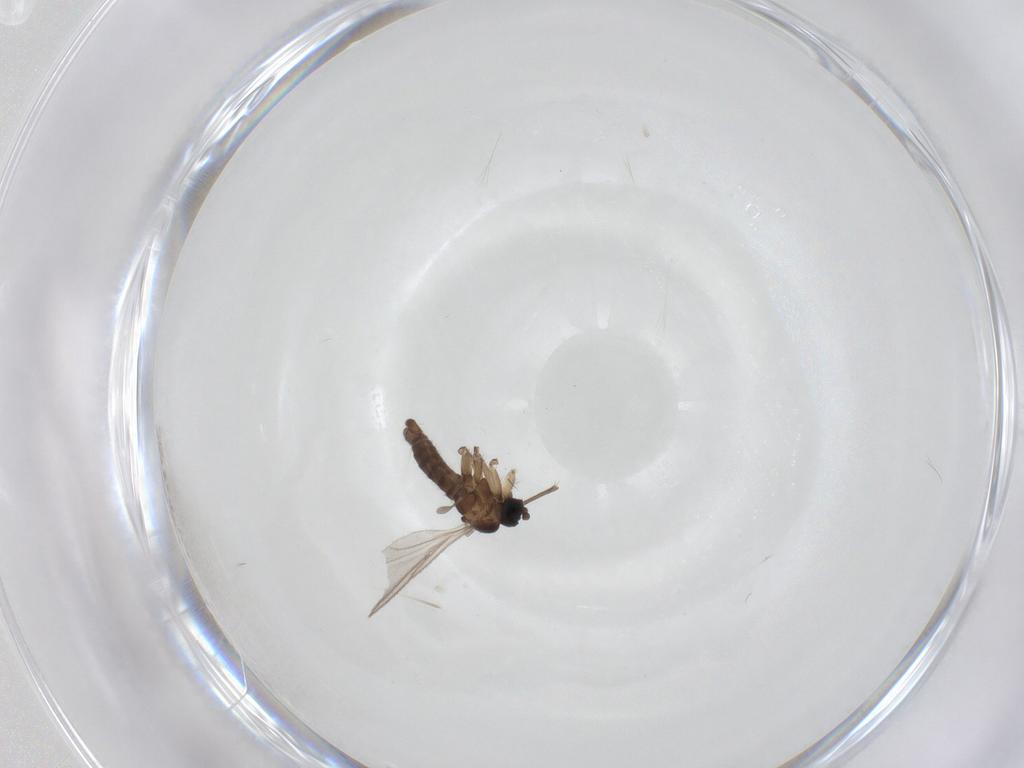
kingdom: Animalia
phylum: Arthropoda
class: Insecta
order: Diptera
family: Sciaridae
